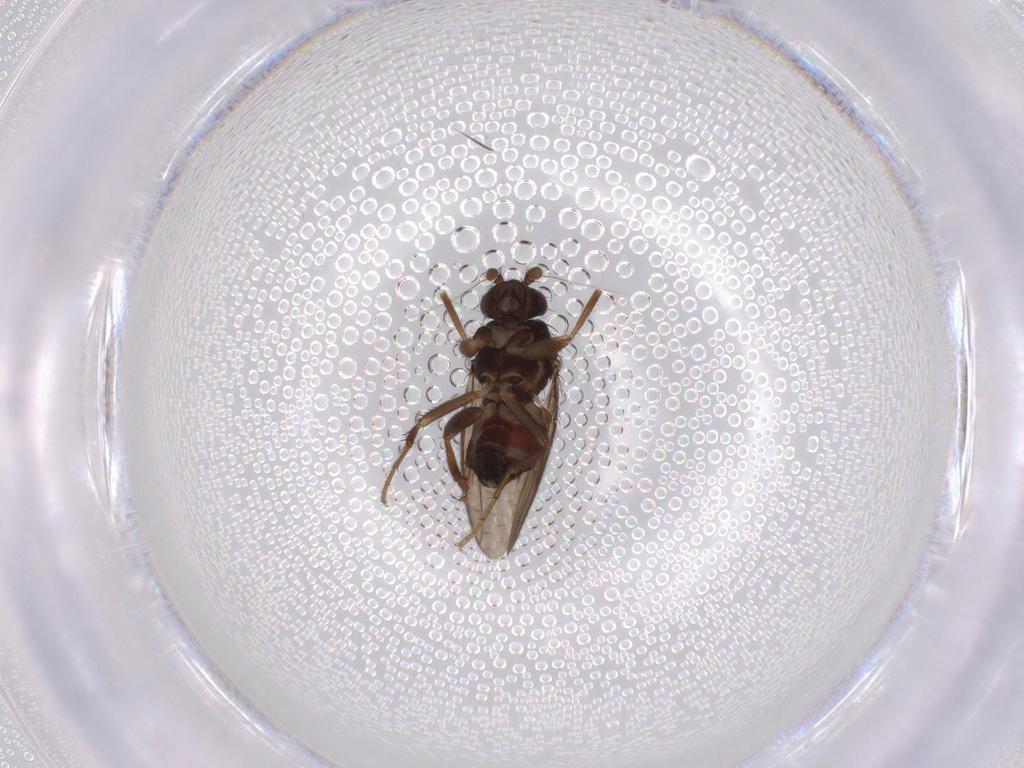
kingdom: Animalia
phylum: Arthropoda
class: Insecta
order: Diptera
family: Sphaeroceridae
